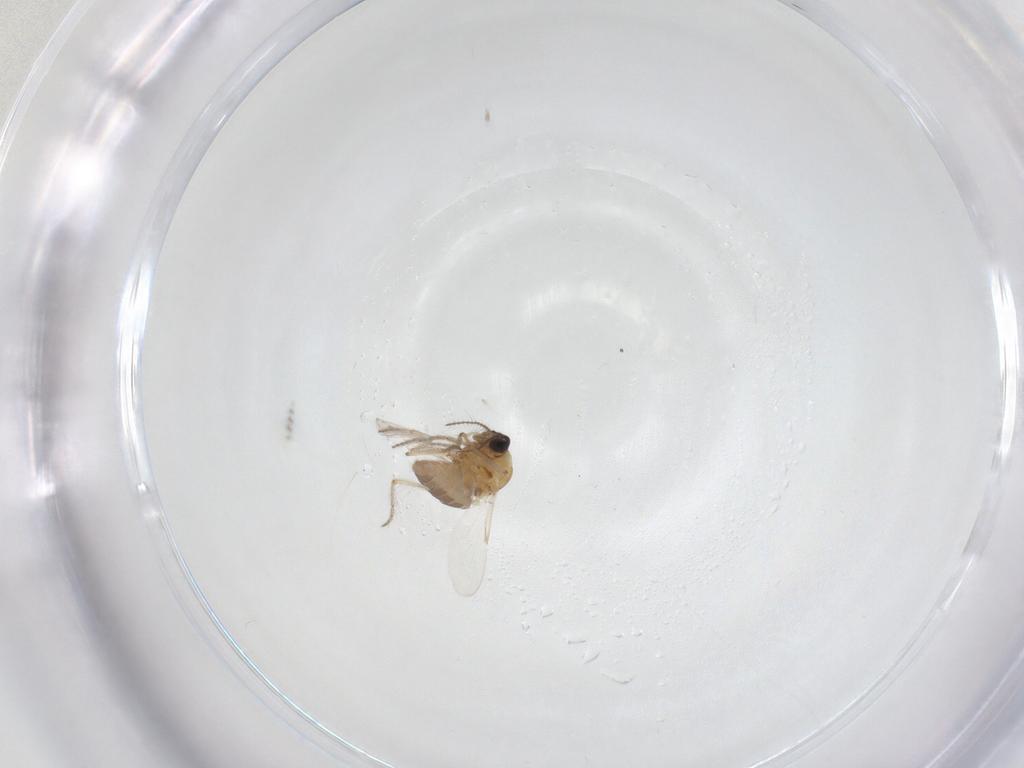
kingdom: Animalia
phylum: Arthropoda
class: Insecta
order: Diptera
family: Ceratopogonidae
